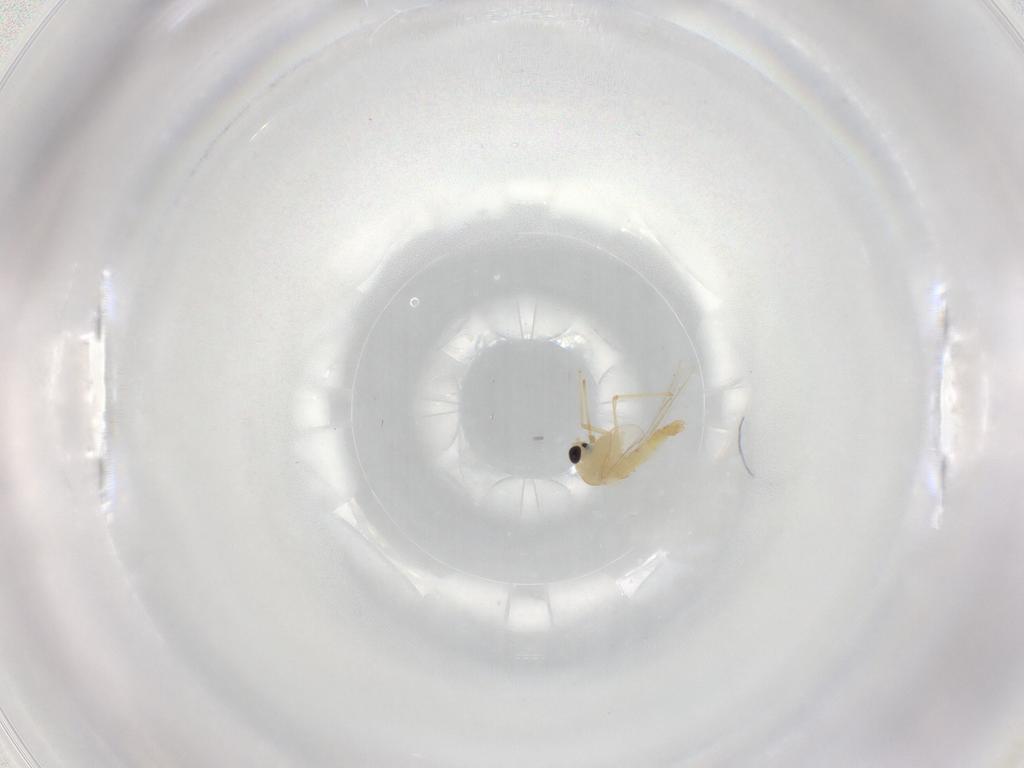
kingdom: Animalia
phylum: Arthropoda
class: Insecta
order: Diptera
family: Chironomidae
